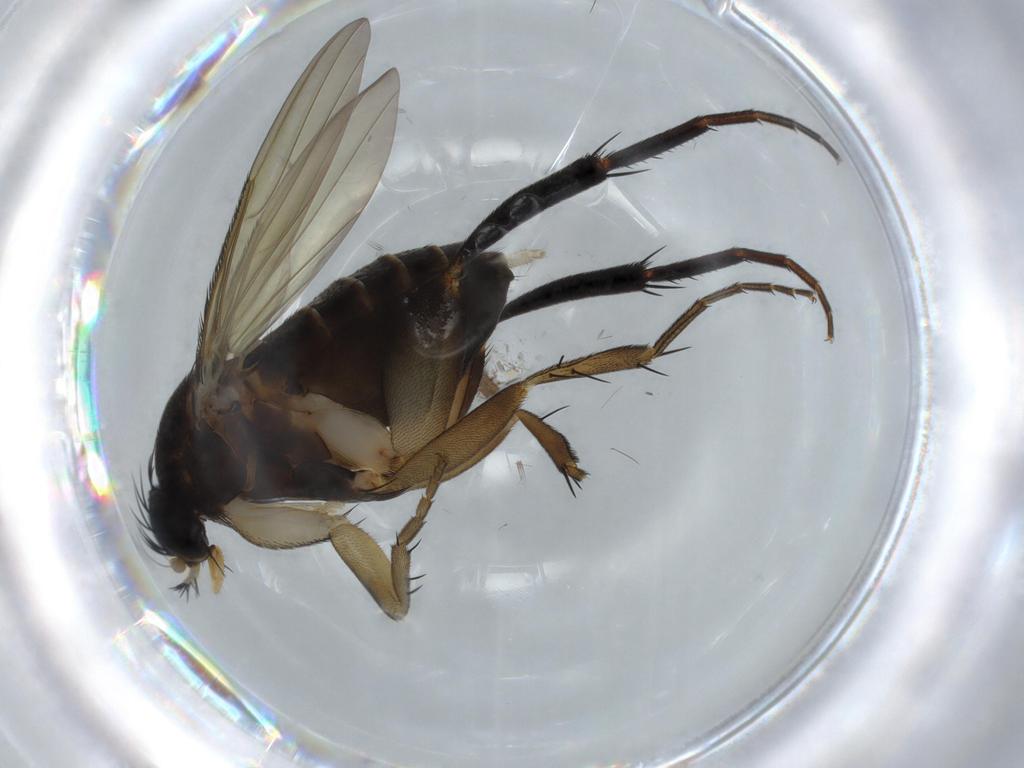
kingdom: Animalia
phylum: Arthropoda
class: Insecta
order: Diptera
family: Phoridae
